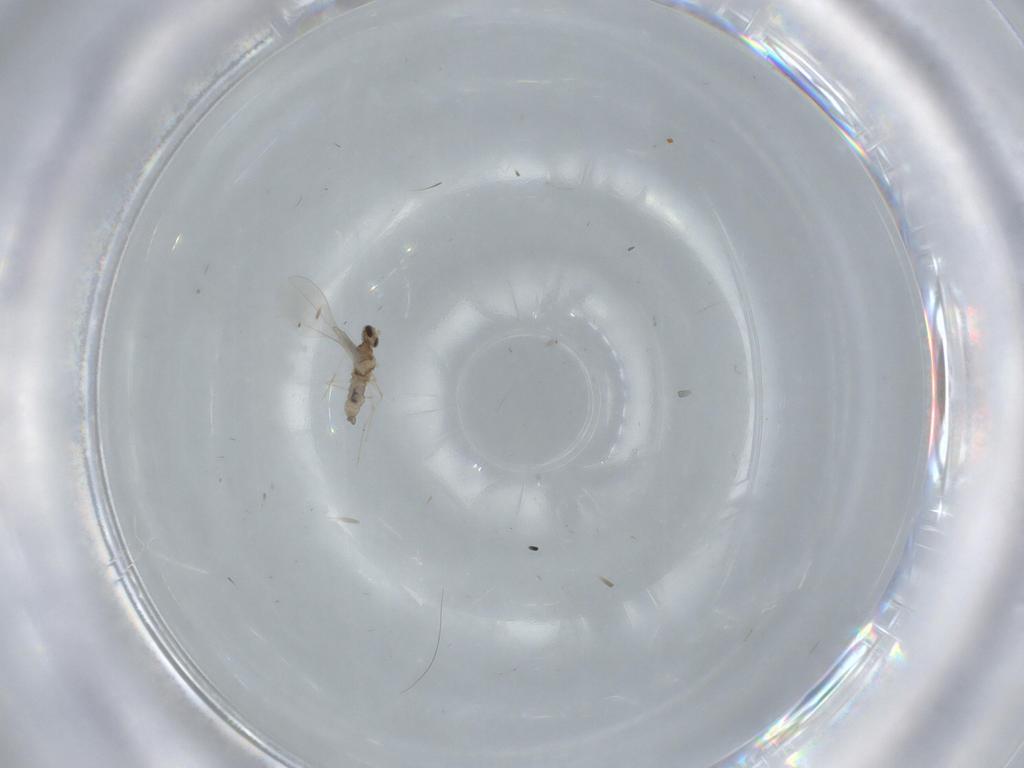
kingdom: Animalia
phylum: Arthropoda
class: Insecta
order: Diptera
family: Cecidomyiidae
